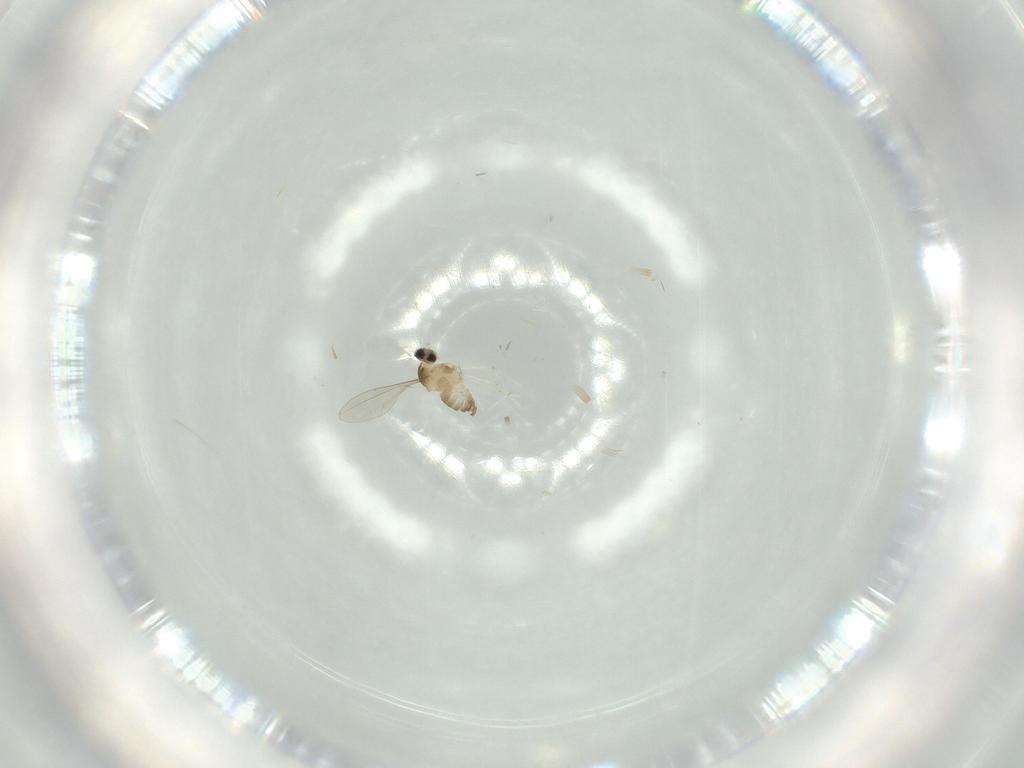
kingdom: Animalia
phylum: Arthropoda
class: Insecta
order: Diptera
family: Cecidomyiidae
